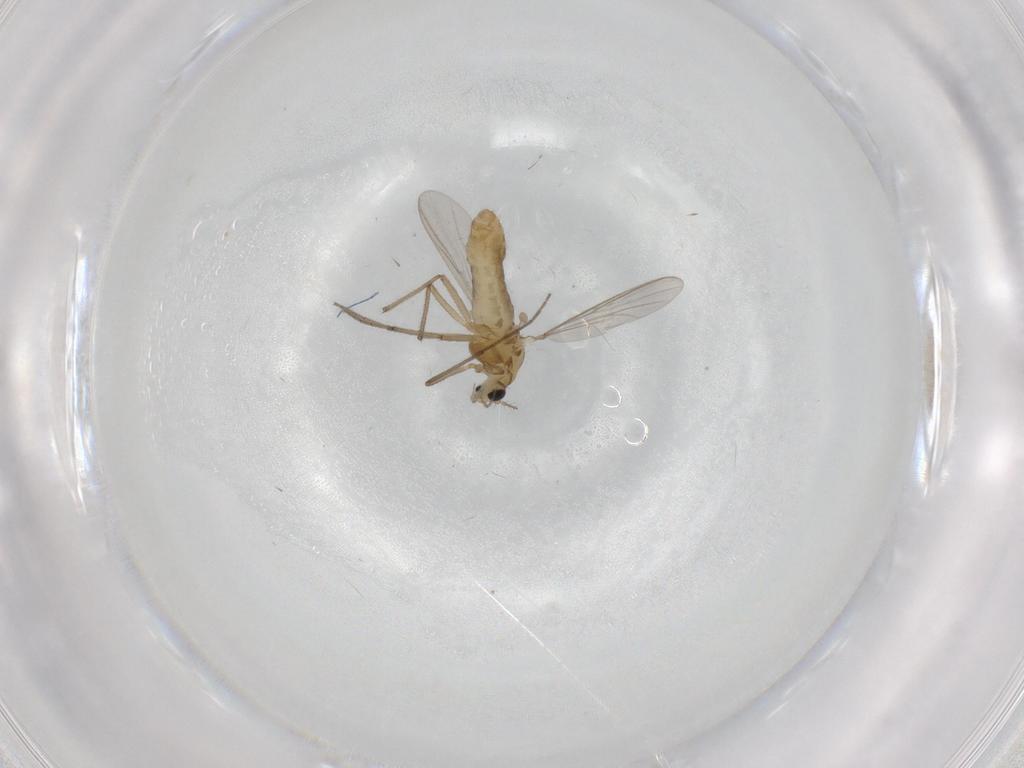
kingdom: Animalia
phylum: Arthropoda
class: Insecta
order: Diptera
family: Chironomidae
